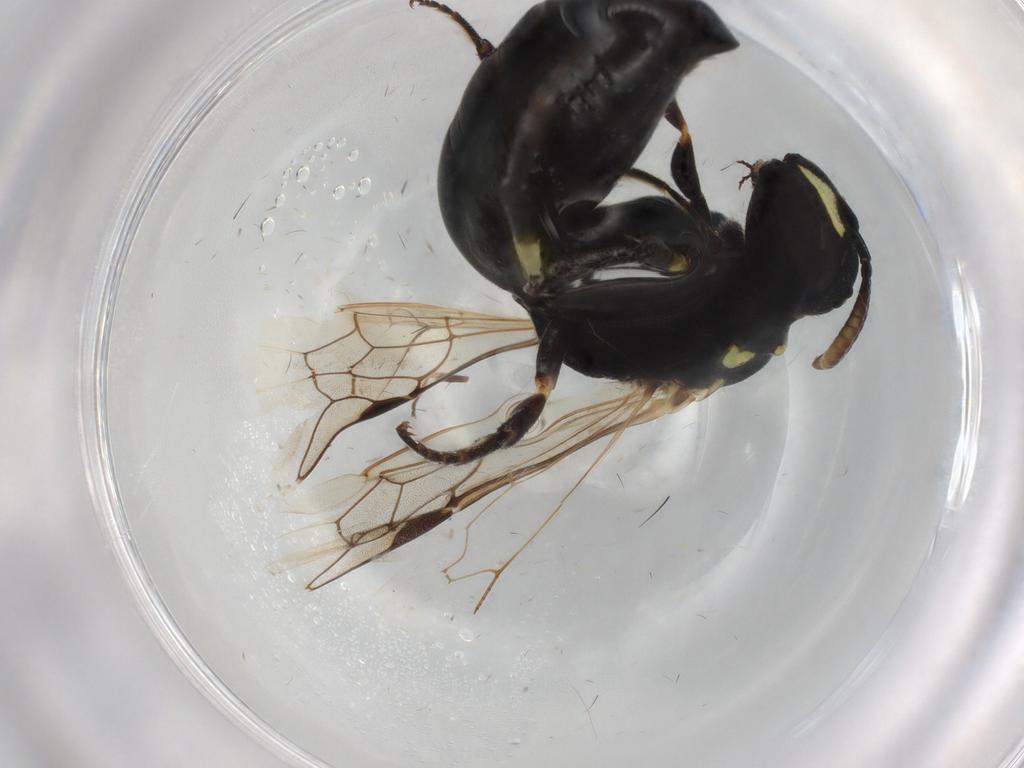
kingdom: Animalia
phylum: Arthropoda
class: Insecta
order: Hymenoptera
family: Colletidae
